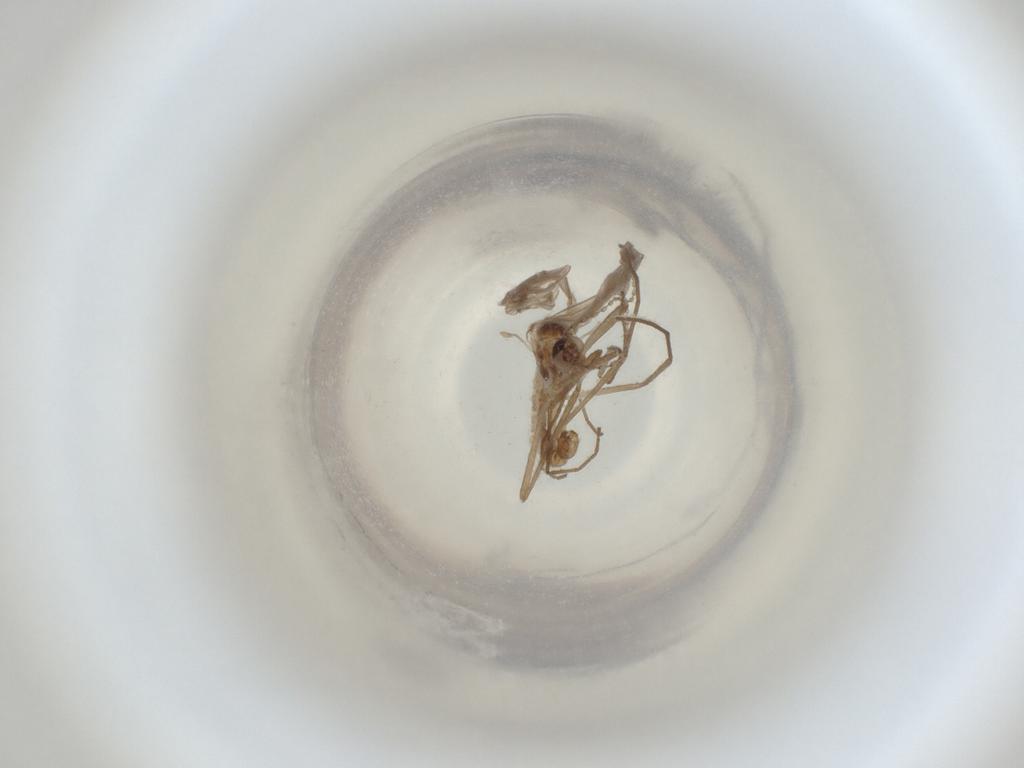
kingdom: Animalia
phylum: Arthropoda
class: Insecta
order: Diptera
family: Cecidomyiidae
